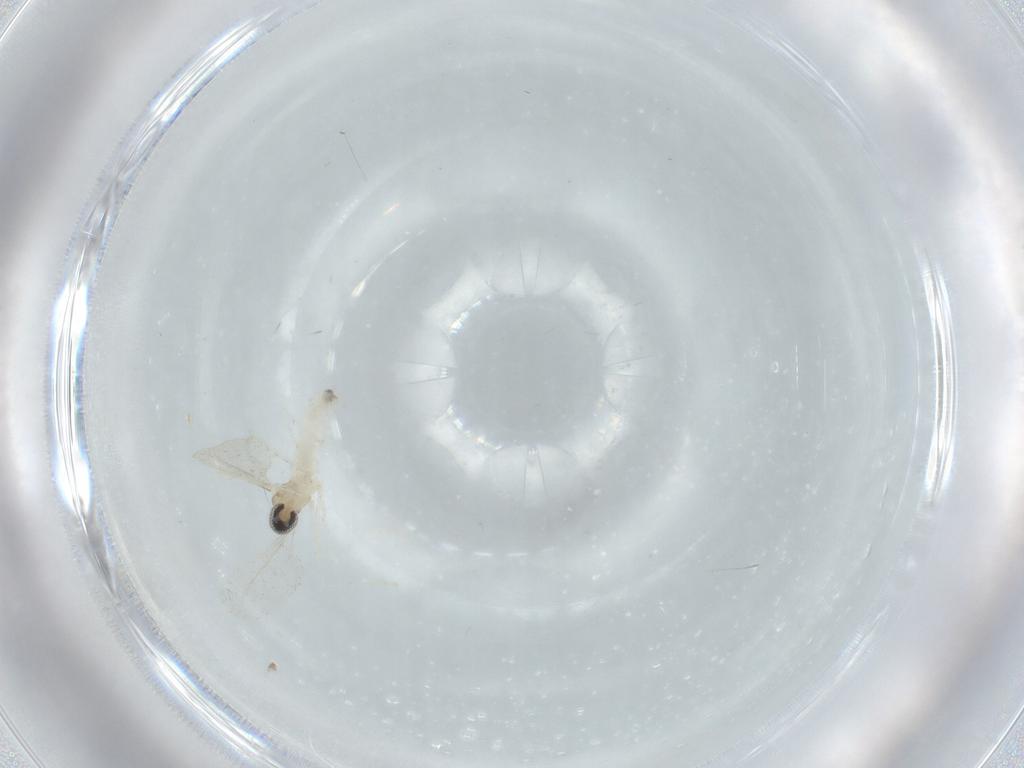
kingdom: Animalia
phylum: Arthropoda
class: Insecta
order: Diptera
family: Cecidomyiidae
